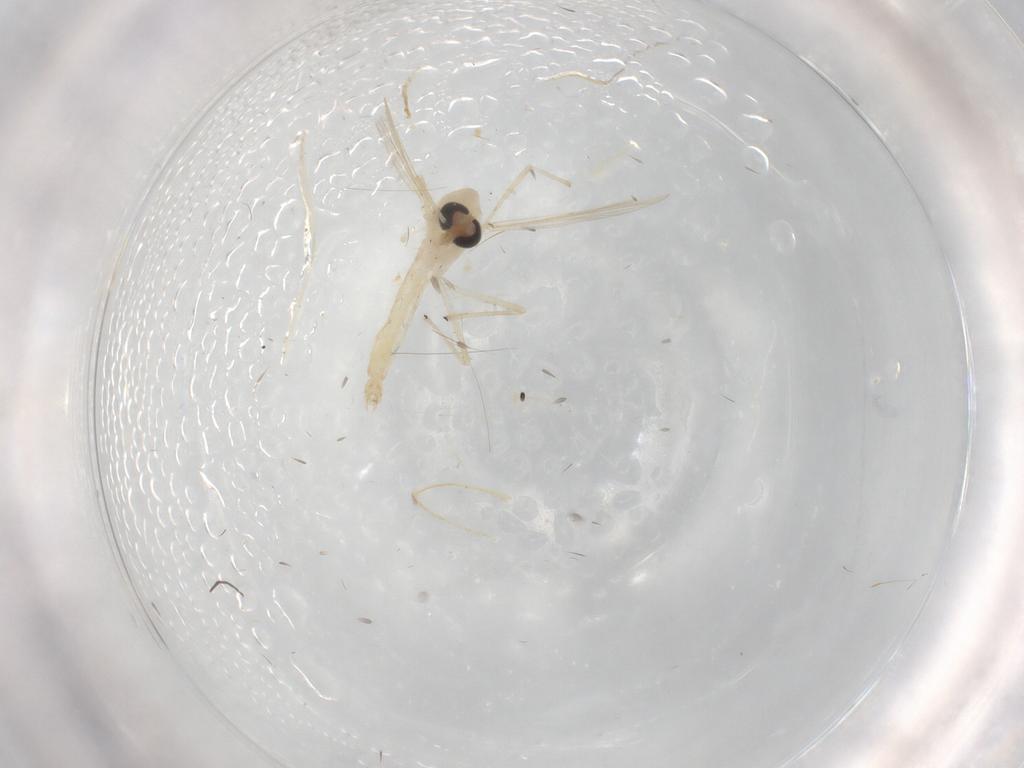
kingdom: Animalia
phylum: Arthropoda
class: Insecta
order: Diptera
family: Chironomidae
